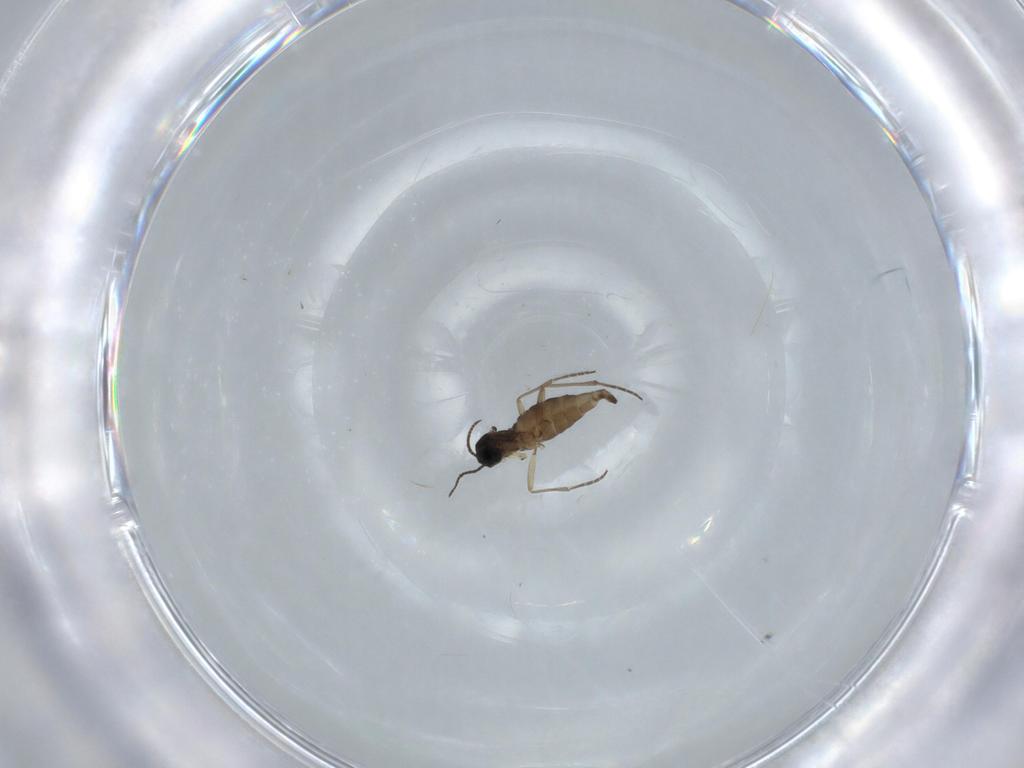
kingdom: Animalia
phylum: Arthropoda
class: Insecta
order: Diptera
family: Sciaridae
